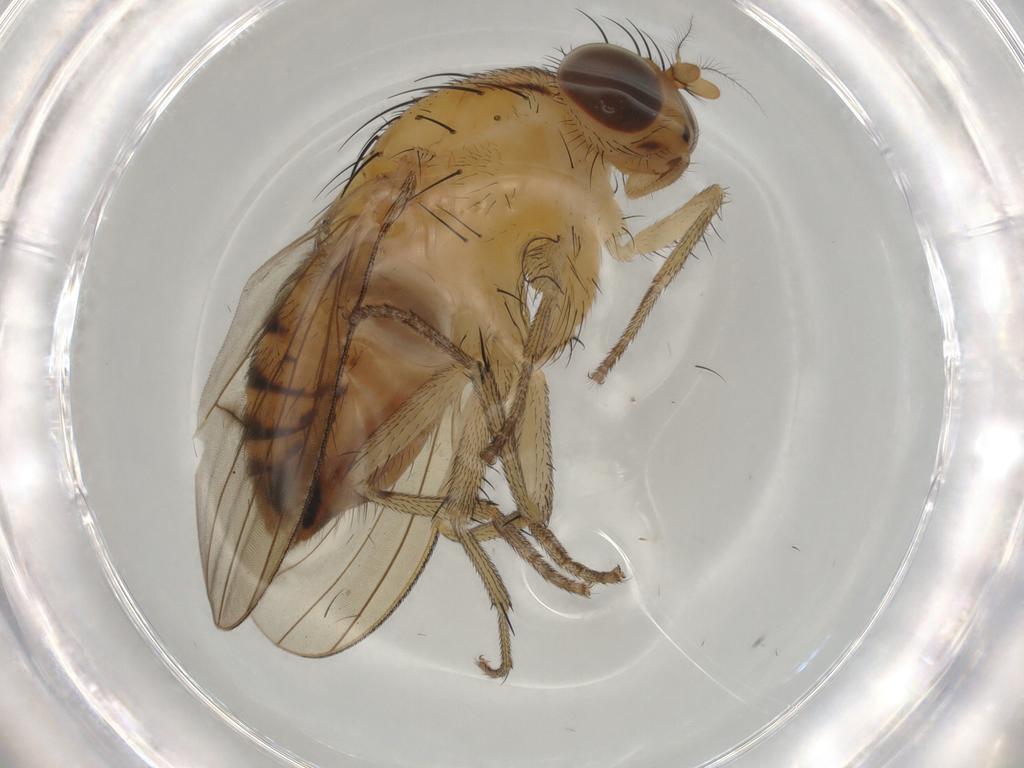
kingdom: Animalia
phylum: Arthropoda
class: Insecta
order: Diptera
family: Lauxaniidae
